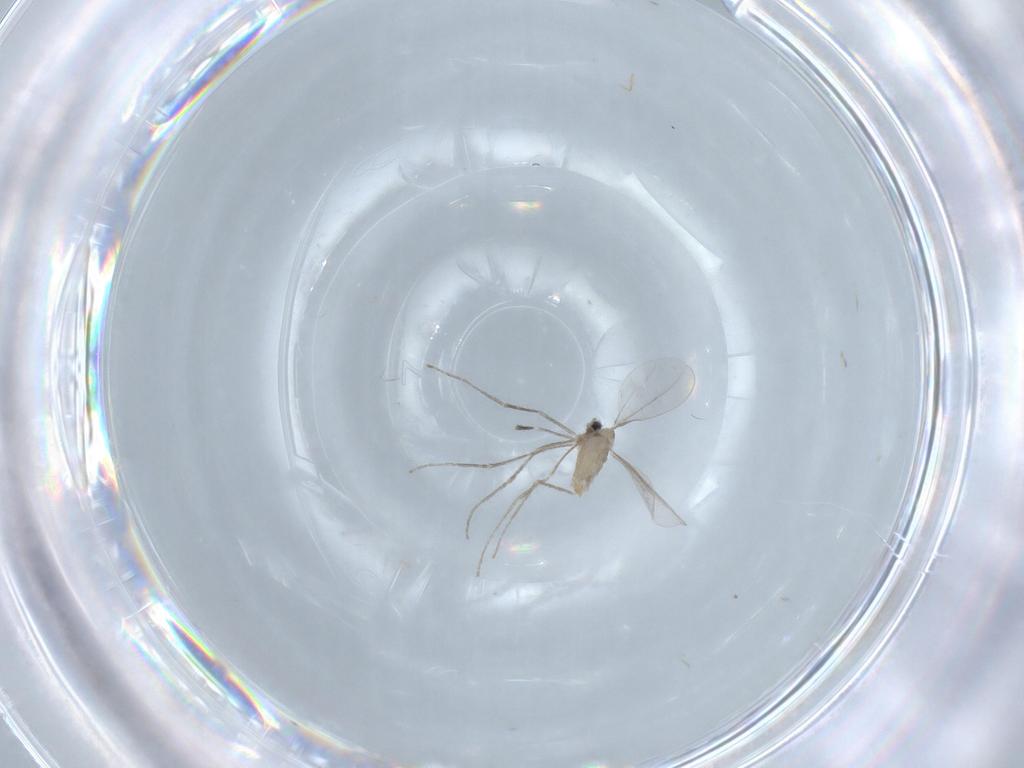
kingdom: Animalia
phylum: Arthropoda
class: Insecta
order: Diptera
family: Cecidomyiidae
